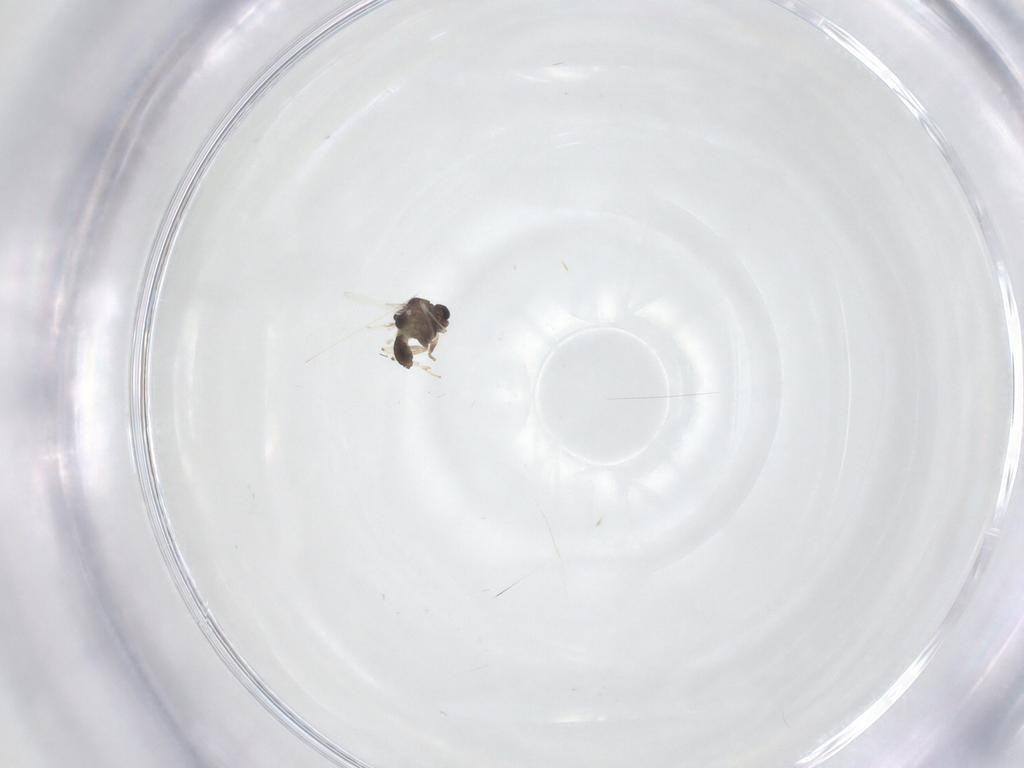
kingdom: Animalia
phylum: Arthropoda
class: Insecta
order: Diptera
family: Chironomidae
